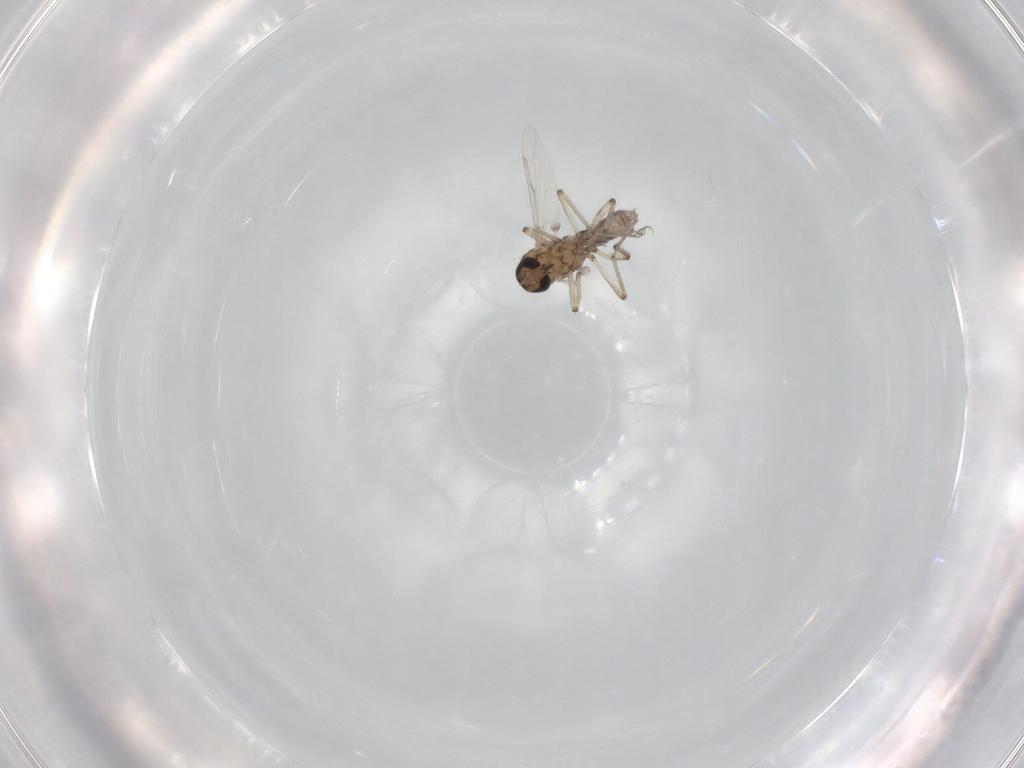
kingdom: Animalia
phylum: Arthropoda
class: Insecta
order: Diptera
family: Ceratopogonidae
